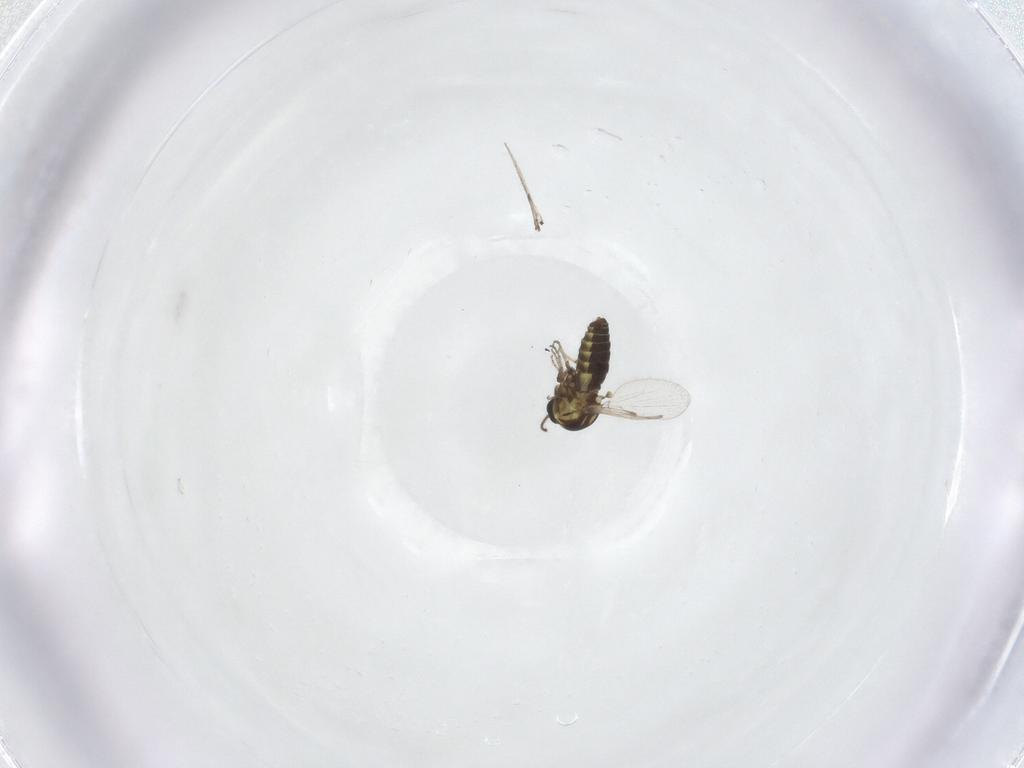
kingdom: Animalia
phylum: Arthropoda
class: Insecta
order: Diptera
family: Ceratopogonidae
